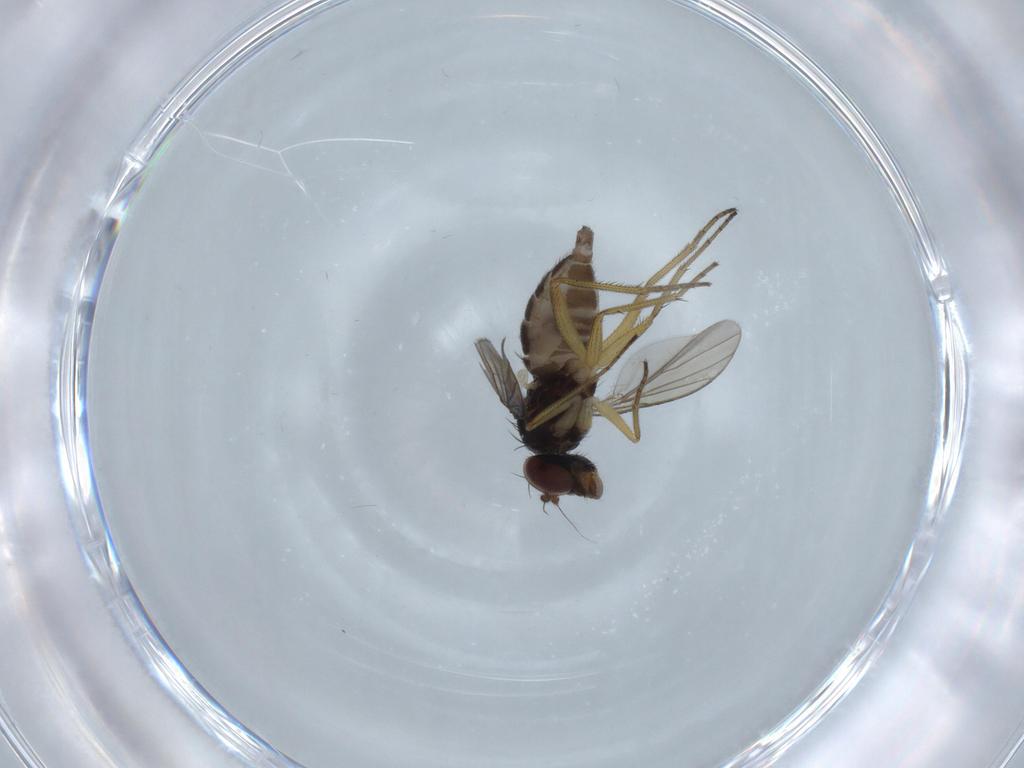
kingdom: Animalia
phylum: Arthropoda
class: Insecta
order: Diptera
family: Dolichopodidae
